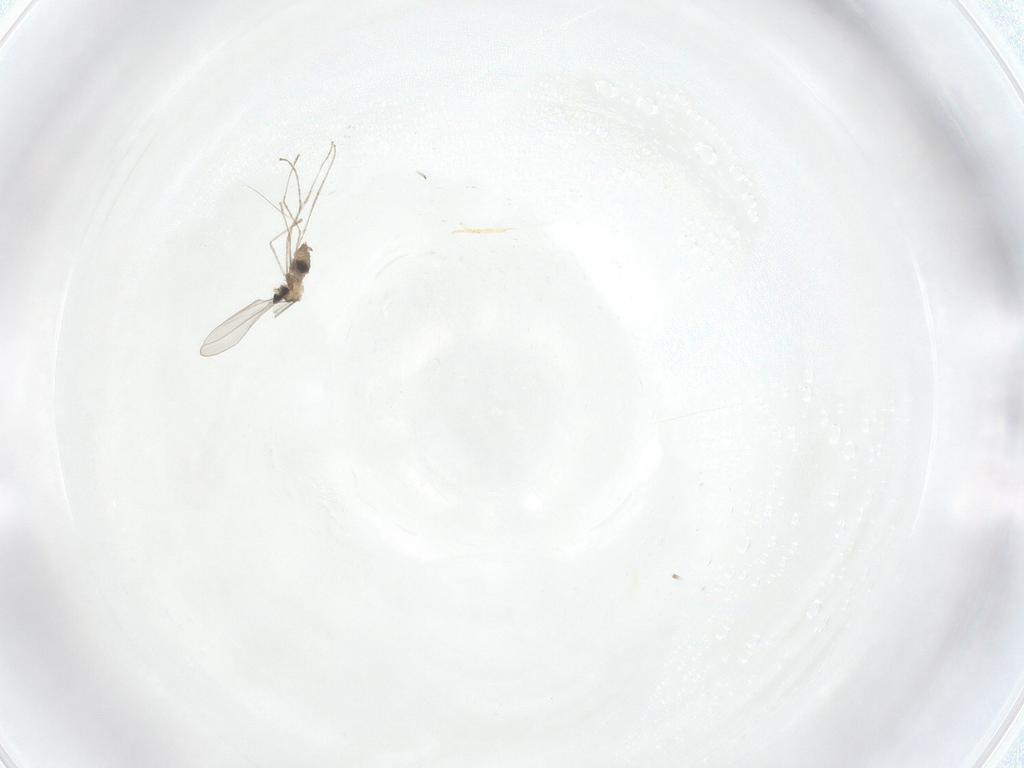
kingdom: Animalia
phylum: Arthropoda
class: Insecta
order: Diptera
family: Cecidomyiidae
